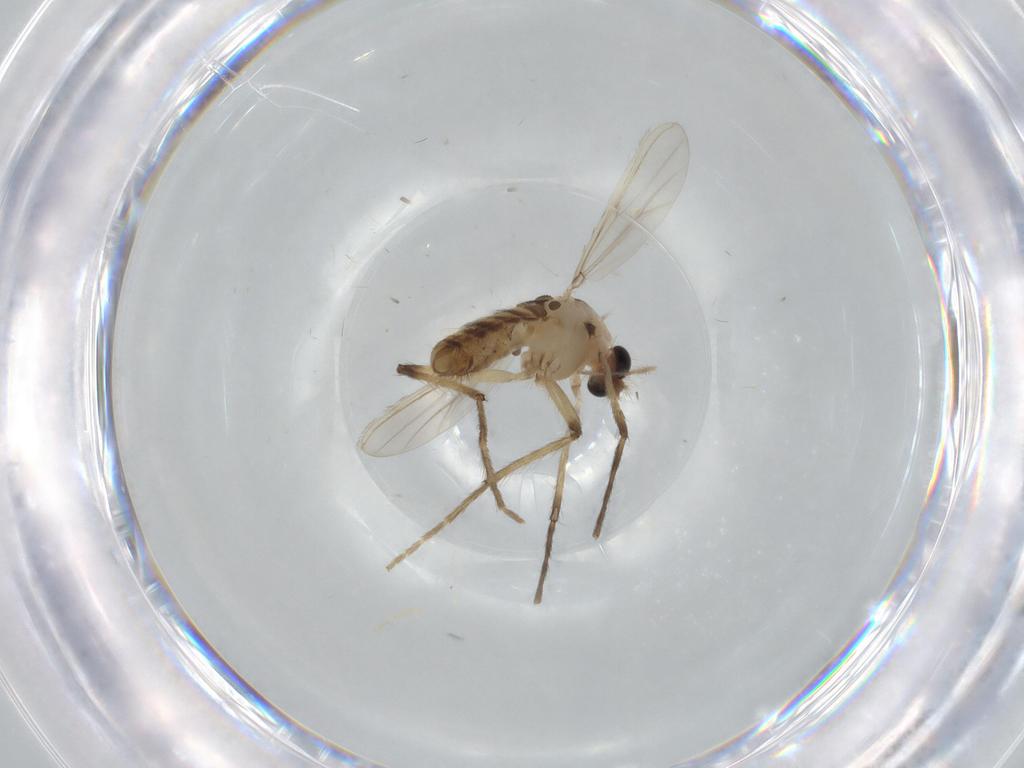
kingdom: Animalia
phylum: Arthropoda
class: Insecta
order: Diptera
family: Chironomidae
